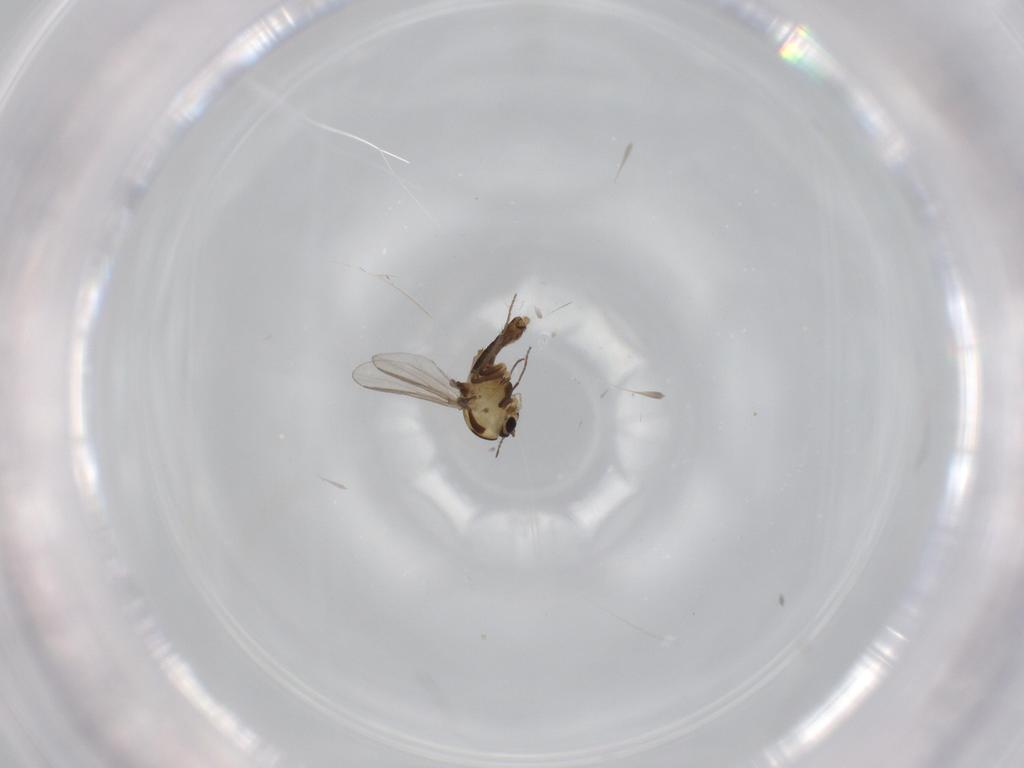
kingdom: Animalia
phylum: Arthropoda
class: Insecta
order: Diptera
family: Chironomidae
